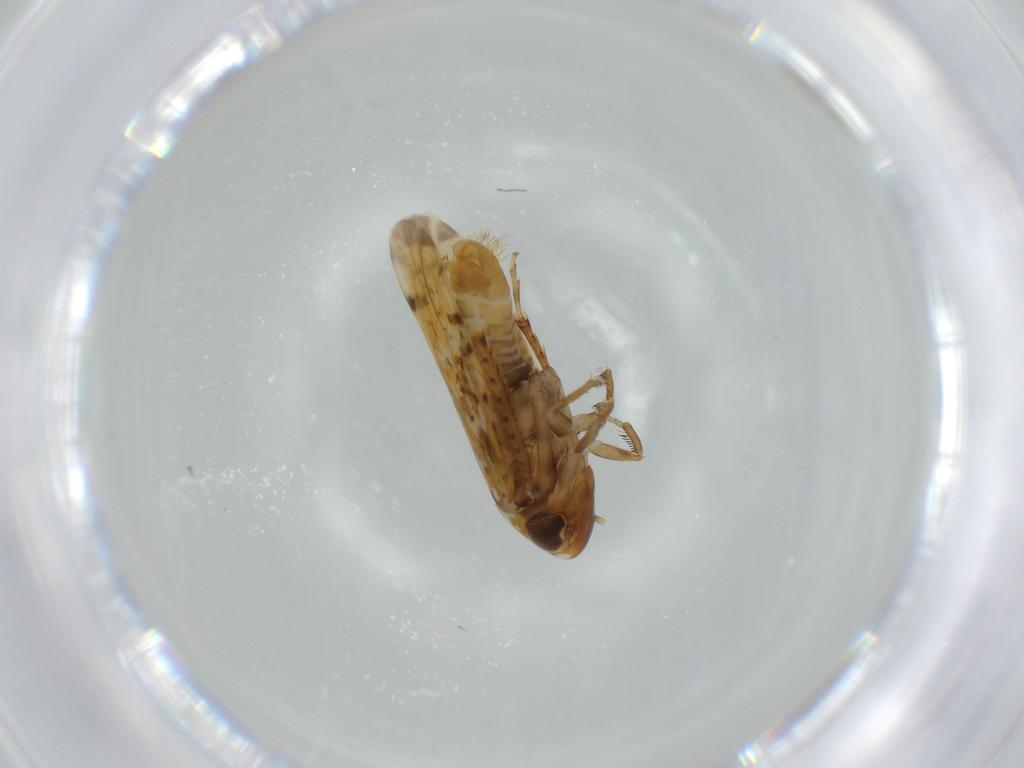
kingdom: Animalia
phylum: Arthropoda
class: Insecta
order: Hemiptera
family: Cicadellidae
